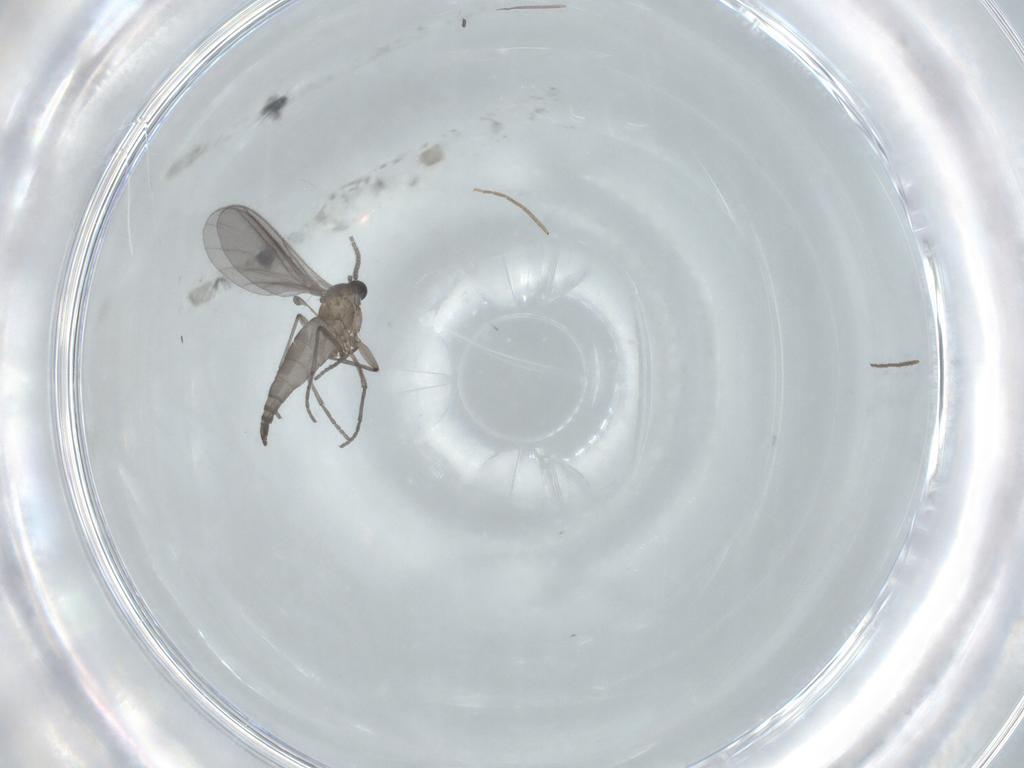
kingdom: Animalia
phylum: Arthropoda
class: Insecta
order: Diptera
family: Sciaridae
